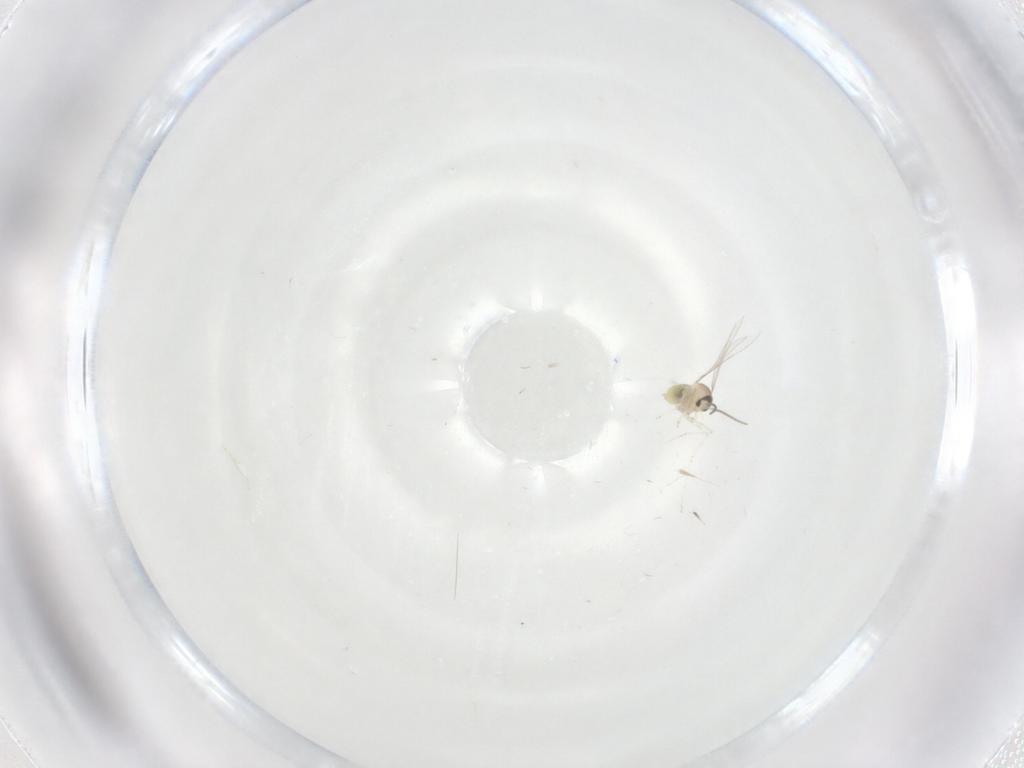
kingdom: Animalia
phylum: Arthropoda
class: Insecta
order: Diptera
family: Cecidomyiidae
